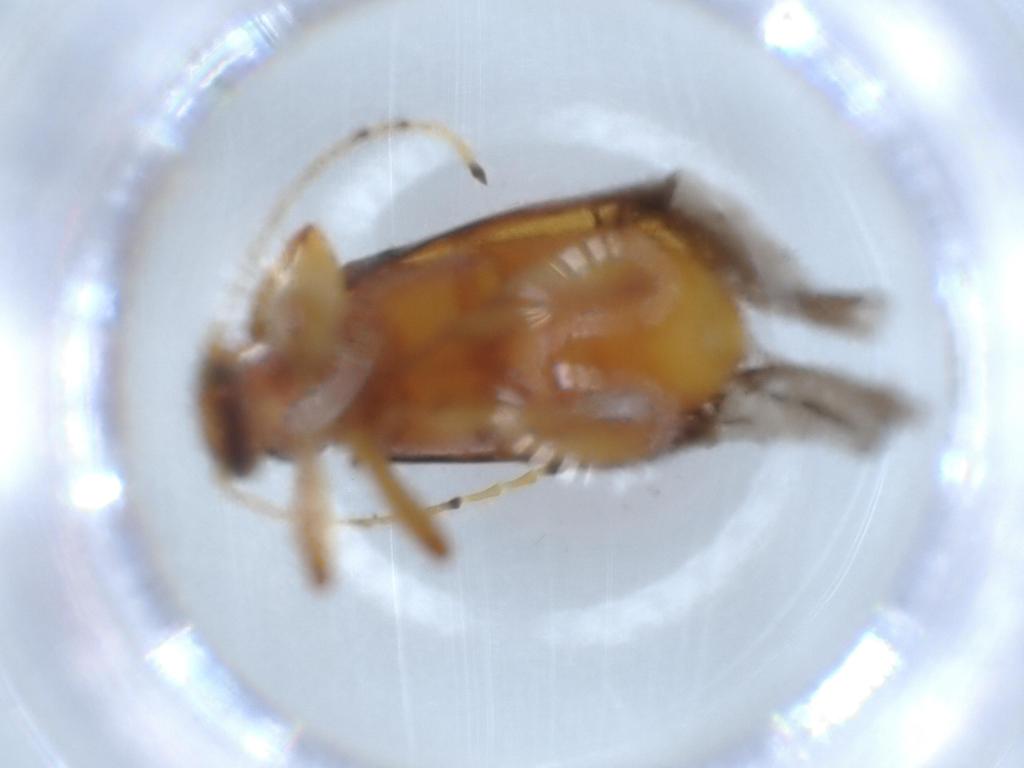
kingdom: Animalia
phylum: Arthropoda
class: Insecta
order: Coleoptera
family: Chrysomelidae
